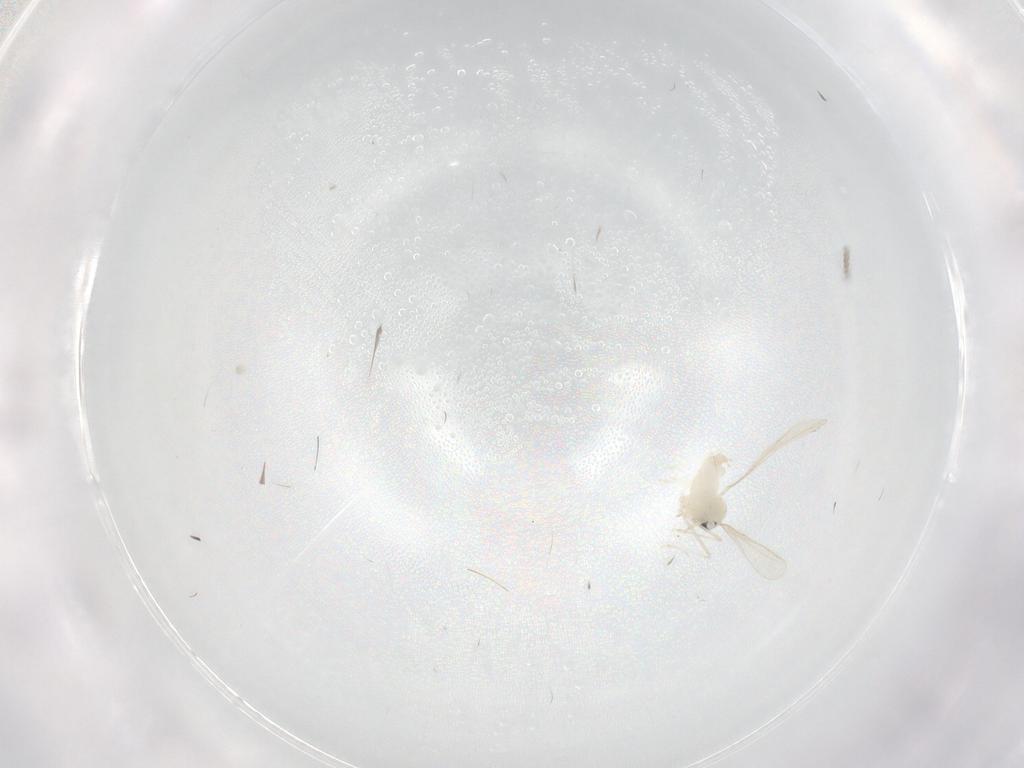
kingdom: Animalia
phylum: Arthropoda
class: Insecta
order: Diptera
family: Cecidomyiidae
